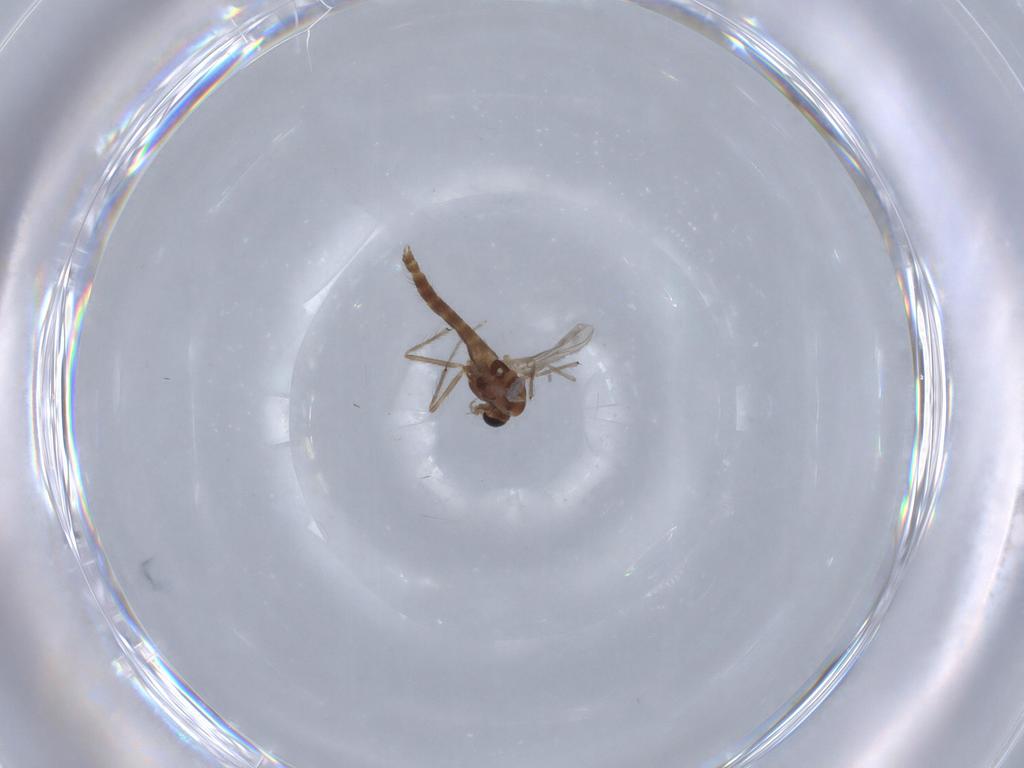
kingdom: Animalia
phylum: Arthropoda
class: Insecta
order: Diptera
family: Chironomidae
